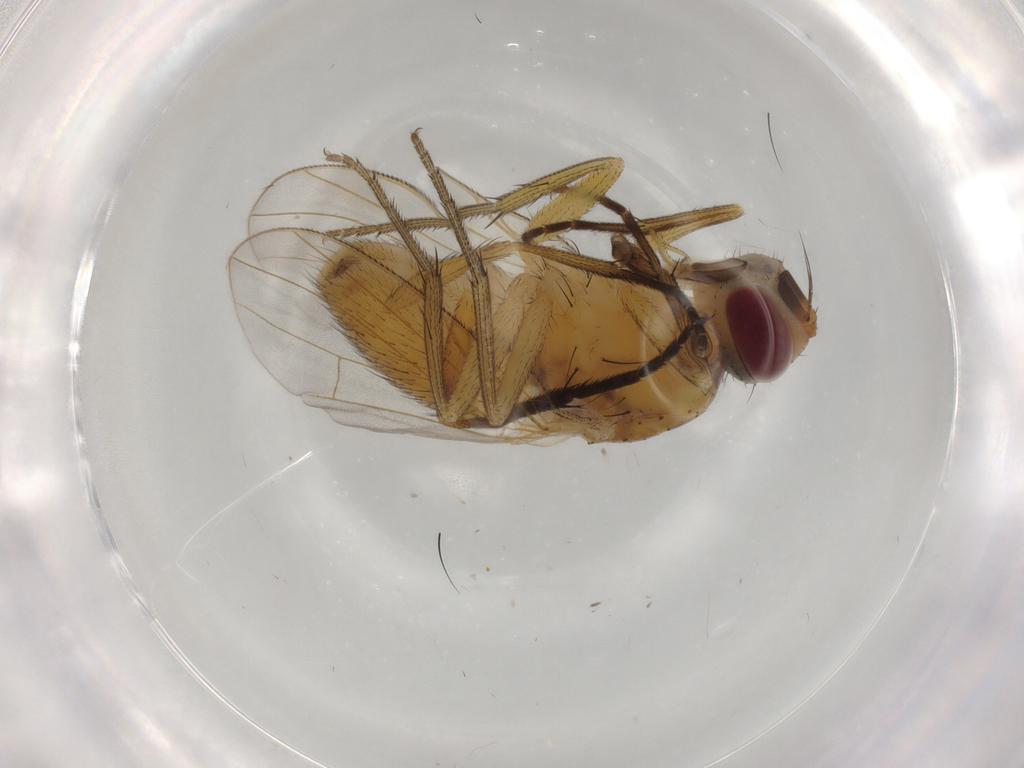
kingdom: Animalia
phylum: Arthropoda
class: Insecta
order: Diptera
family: Muscidae
